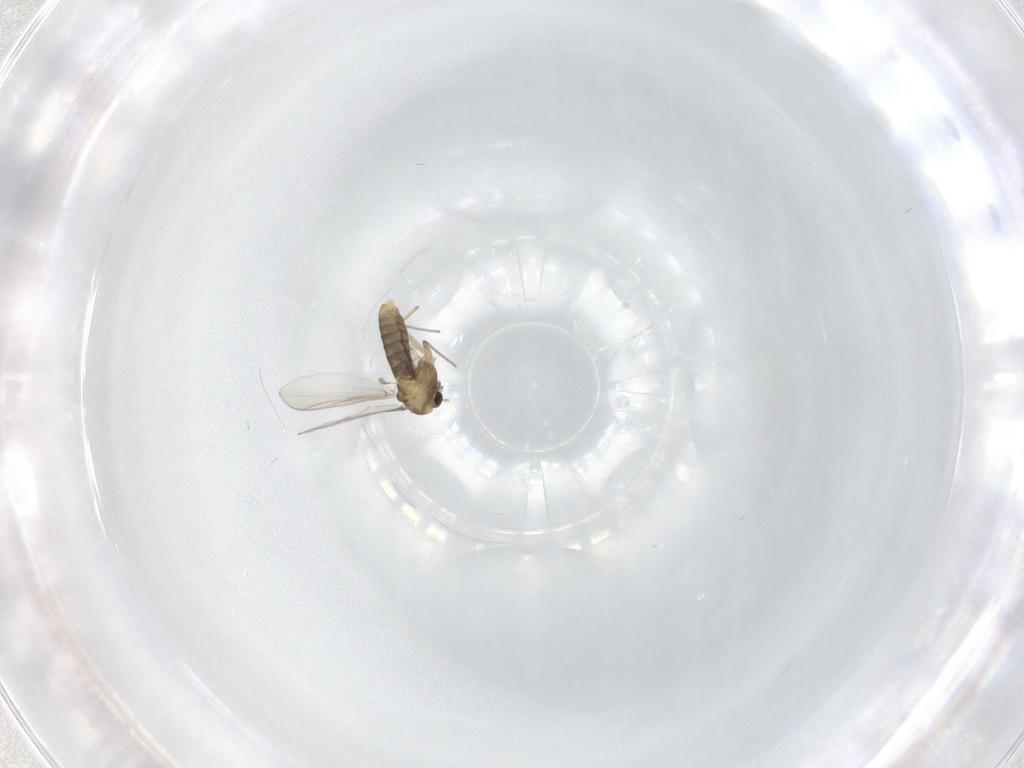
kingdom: Animalia
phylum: Arthropoda
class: Insecta
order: Diptera
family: Chironomidae
